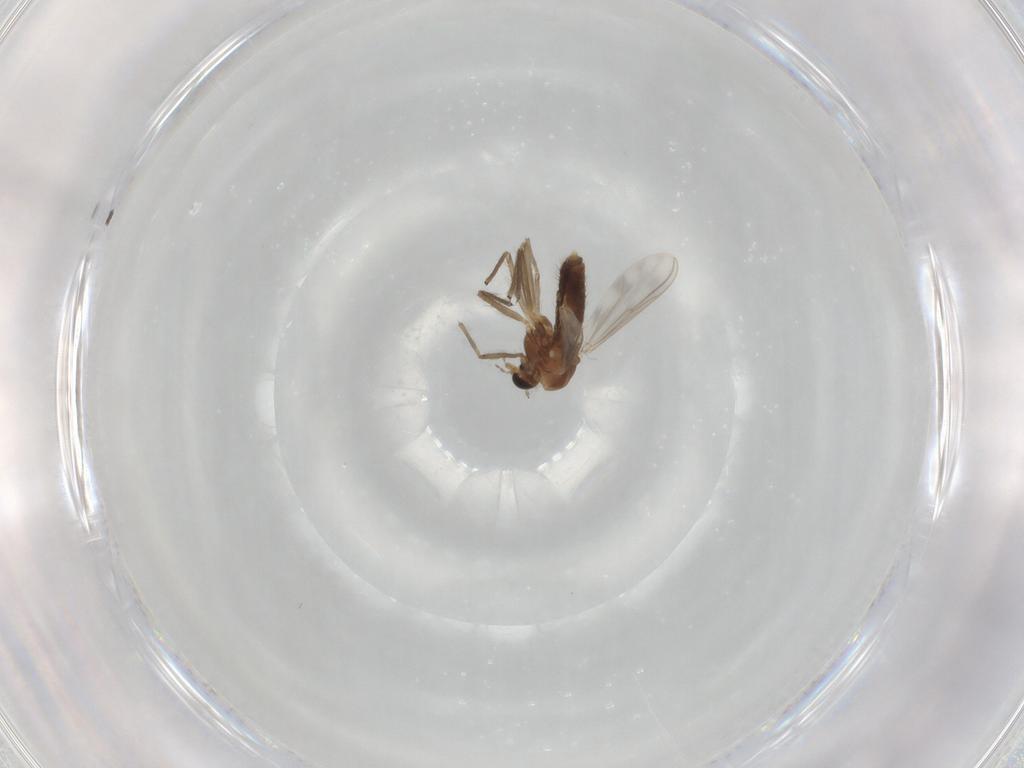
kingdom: Animalia
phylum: Arthropoda
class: Insecta
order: Diptera
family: Chironomidae
